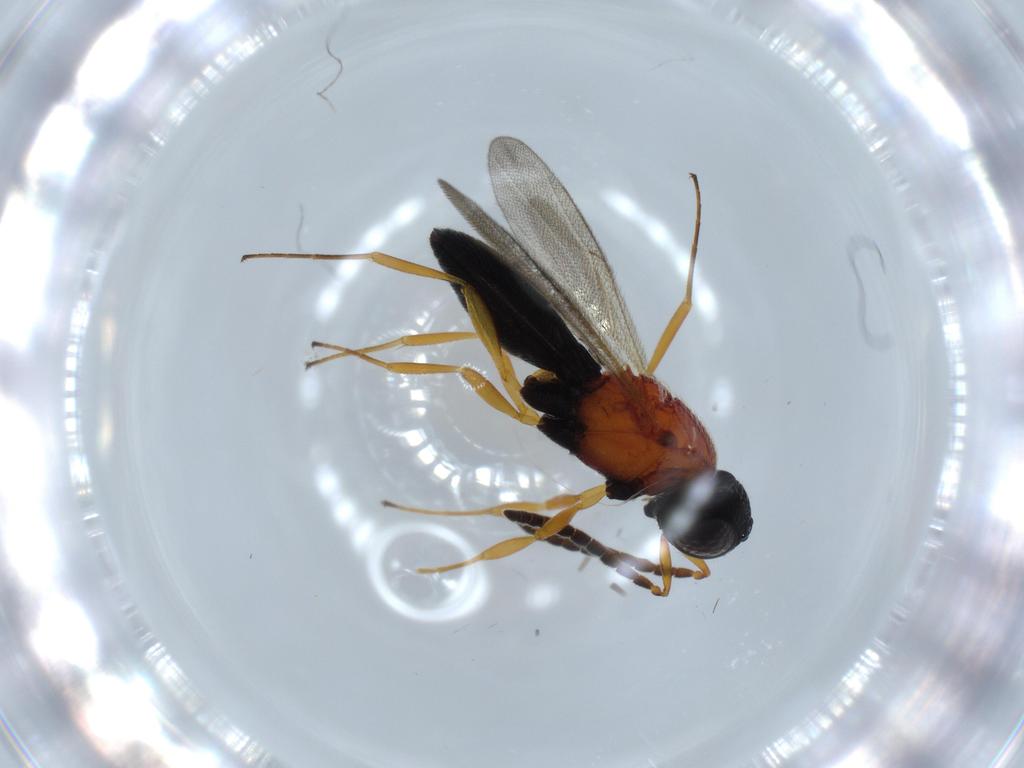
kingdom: Animalia
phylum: Arthropoda
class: Insecta
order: Hymenoptera
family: Scelionidae
